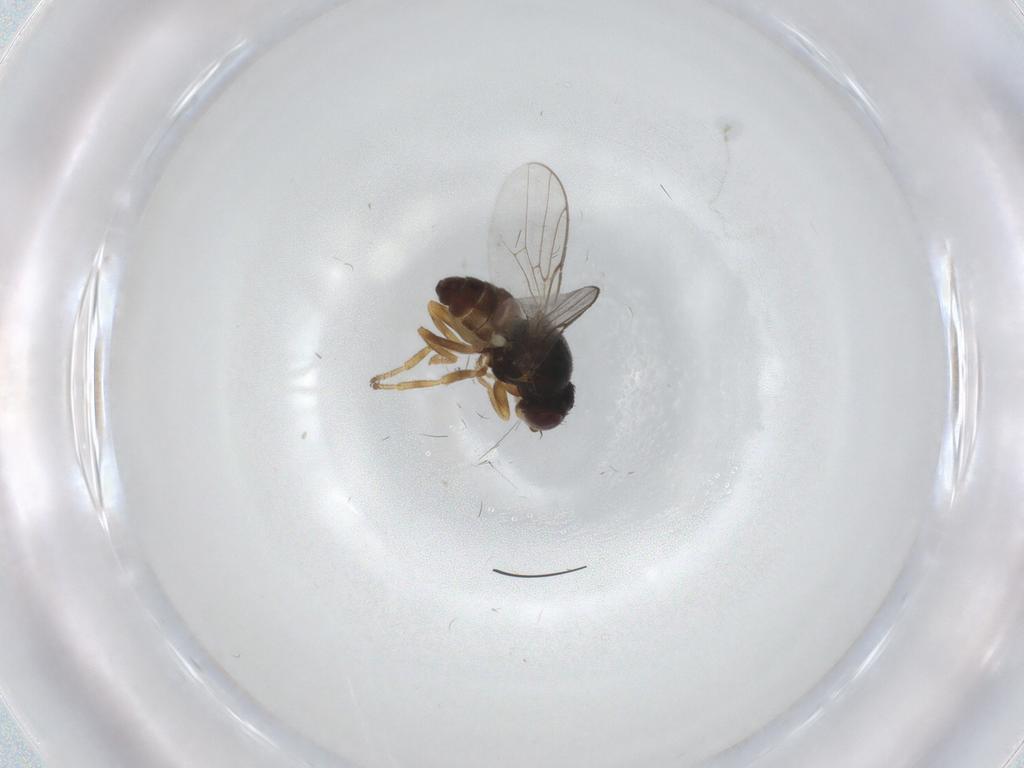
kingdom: Animalia
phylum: Arthropoda
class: Insecta
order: Diptera
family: Chloropidae
